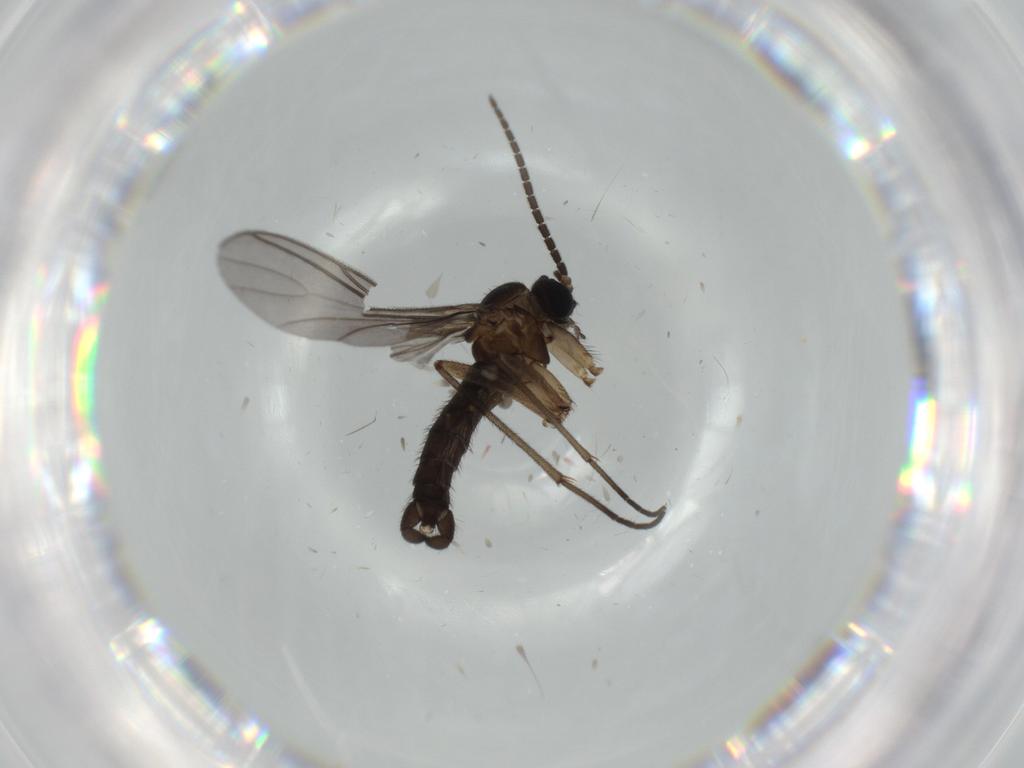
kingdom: Animalia
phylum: Arthropoda
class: Insecta
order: Diptera
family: Sciaridae
